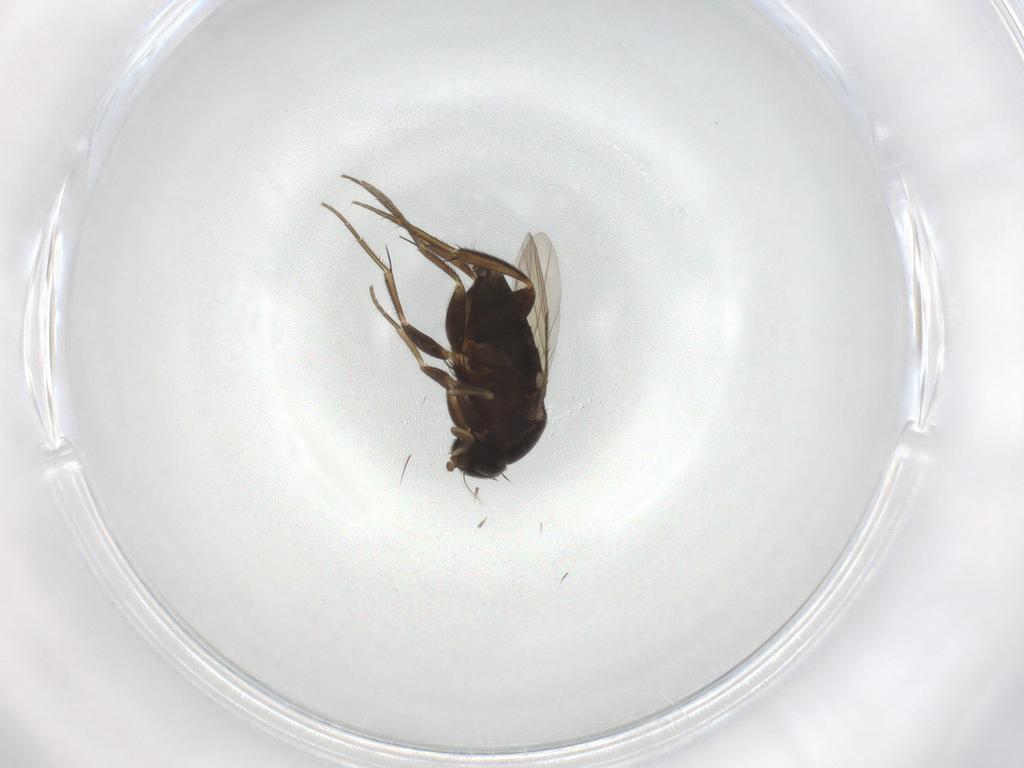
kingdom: Animalia
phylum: Arthropoda
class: Insecta
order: Diptera
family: Phoridae
